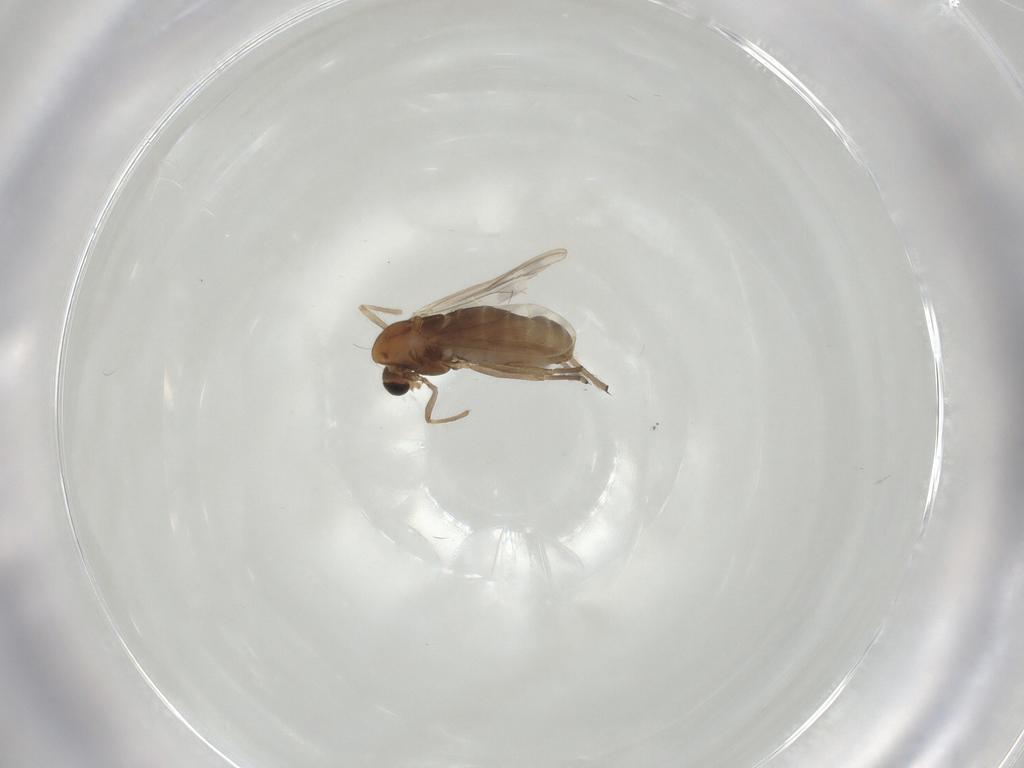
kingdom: Animalia
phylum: Arthropoda
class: Insecta
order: Diptera
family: Chironomidae
